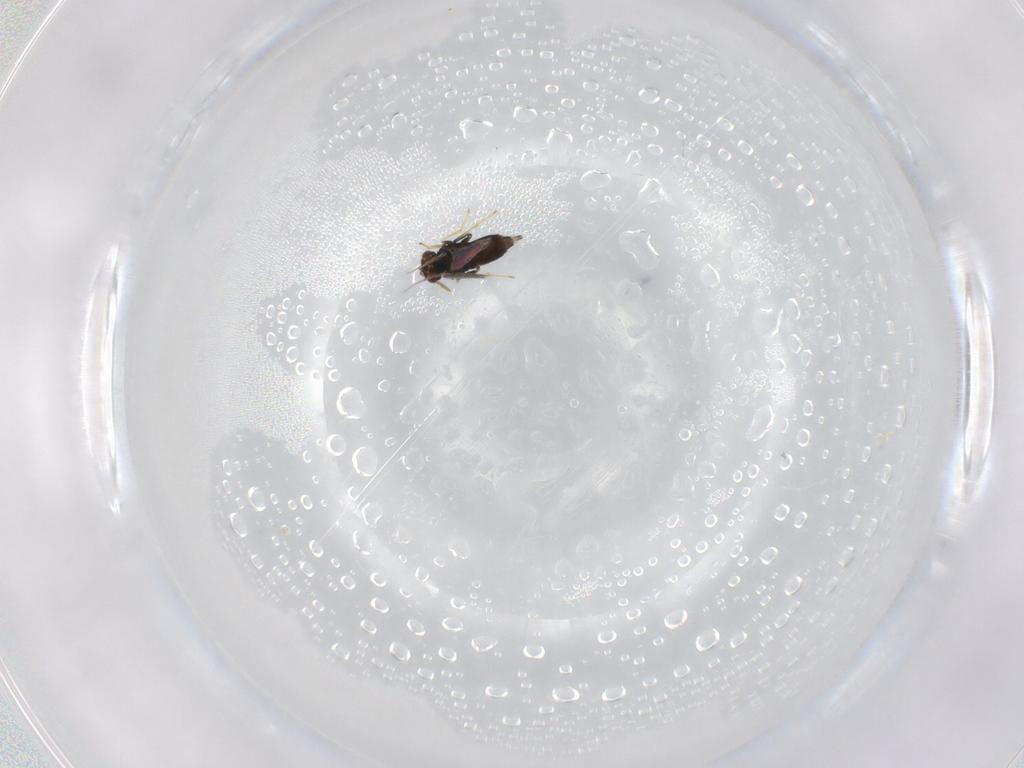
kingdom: Animalia
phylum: Arthropoda
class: Insecta
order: Hymenoptera
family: Aphelinidae
